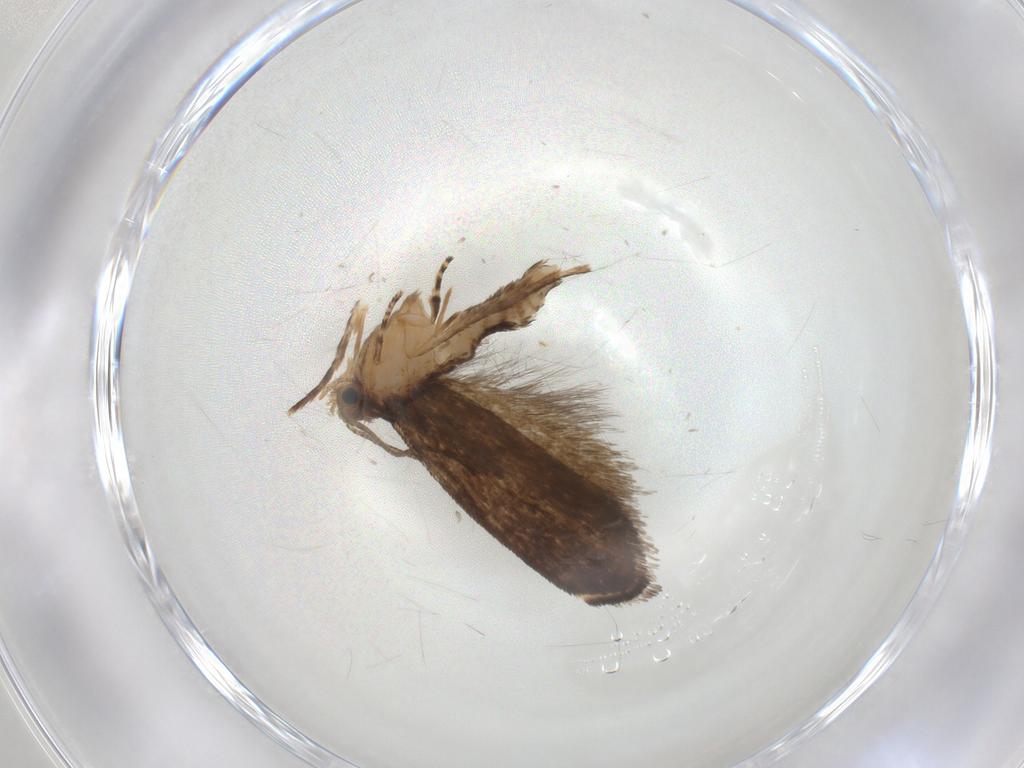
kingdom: Animalia
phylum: Arthropoda
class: Insecta
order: Lepidoptera
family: Tineidae
